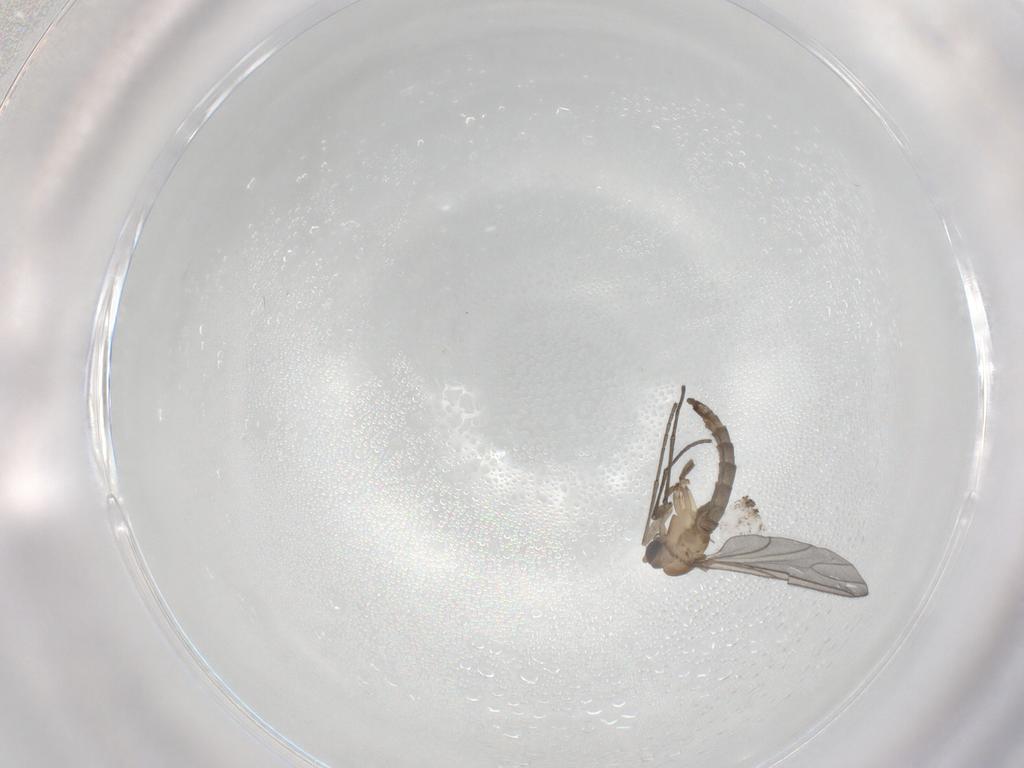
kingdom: Animalia
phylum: Arthropoda
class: Insecta
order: Diptera
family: Sciaridae
